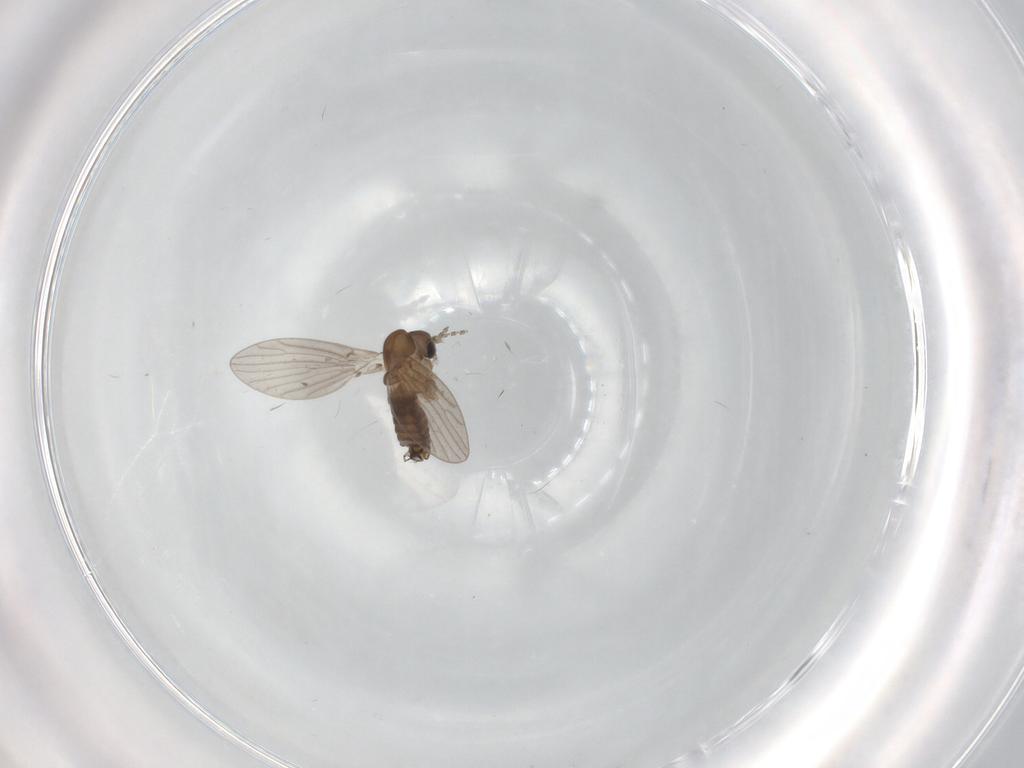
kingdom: Animalia
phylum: Arthropoda
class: Insecta
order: Diptera
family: Psychodidae
